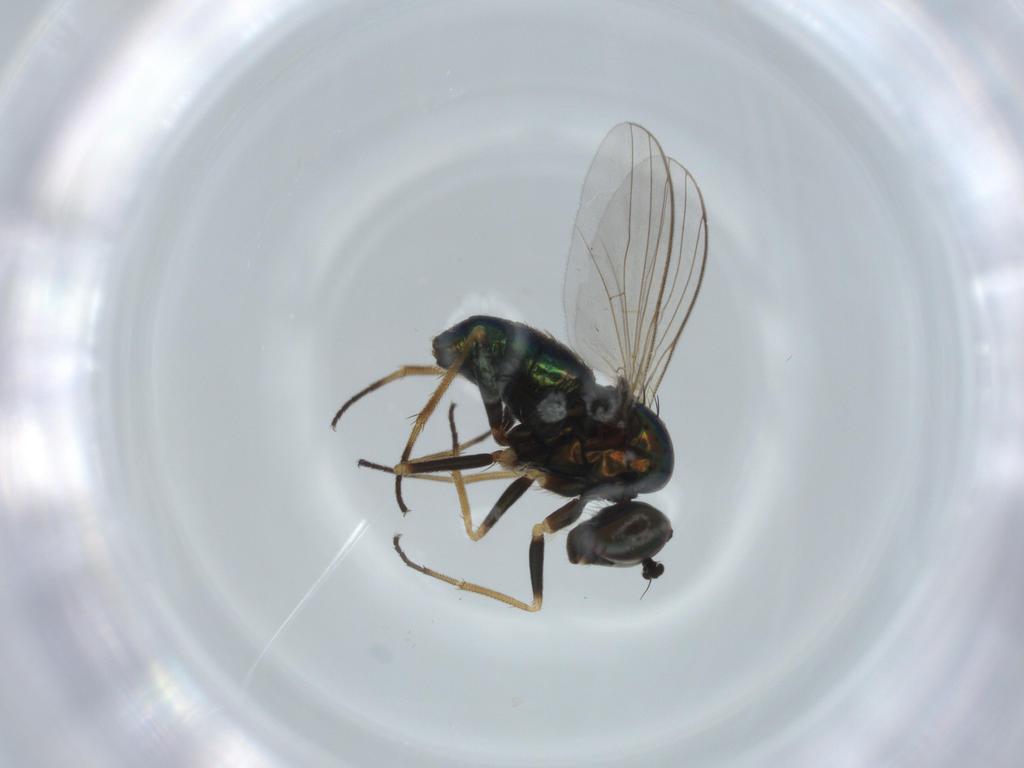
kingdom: Animalia
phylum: Arthropoda
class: Insecta
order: Diptera
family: Dolichopodidae
